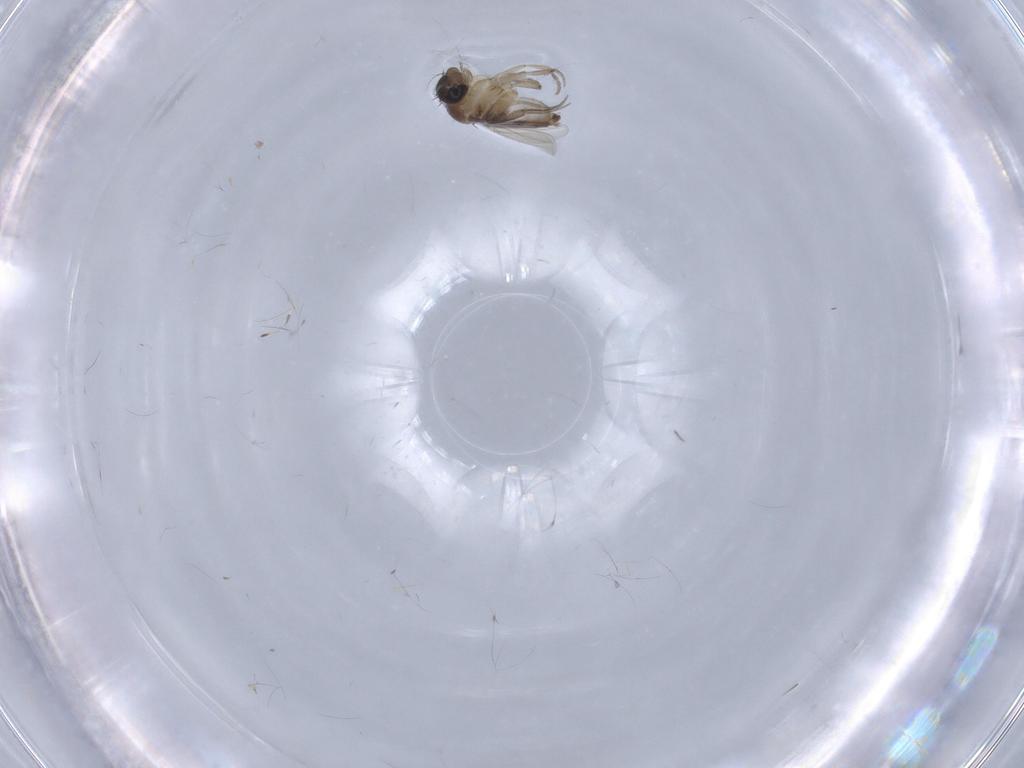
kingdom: Animalia
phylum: Arthropoda
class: Insecta
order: Diptera
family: Phoridae
